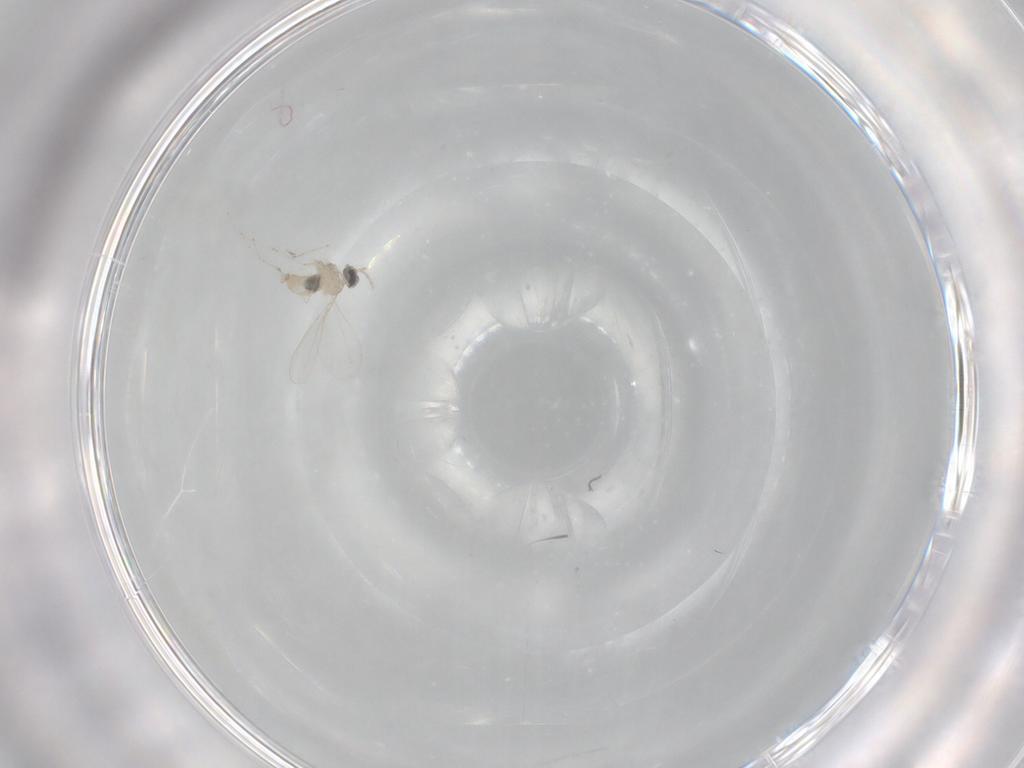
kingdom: Animalia
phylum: Arthropoda
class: Insecta
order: Diptera
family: Cecidomyiidae
